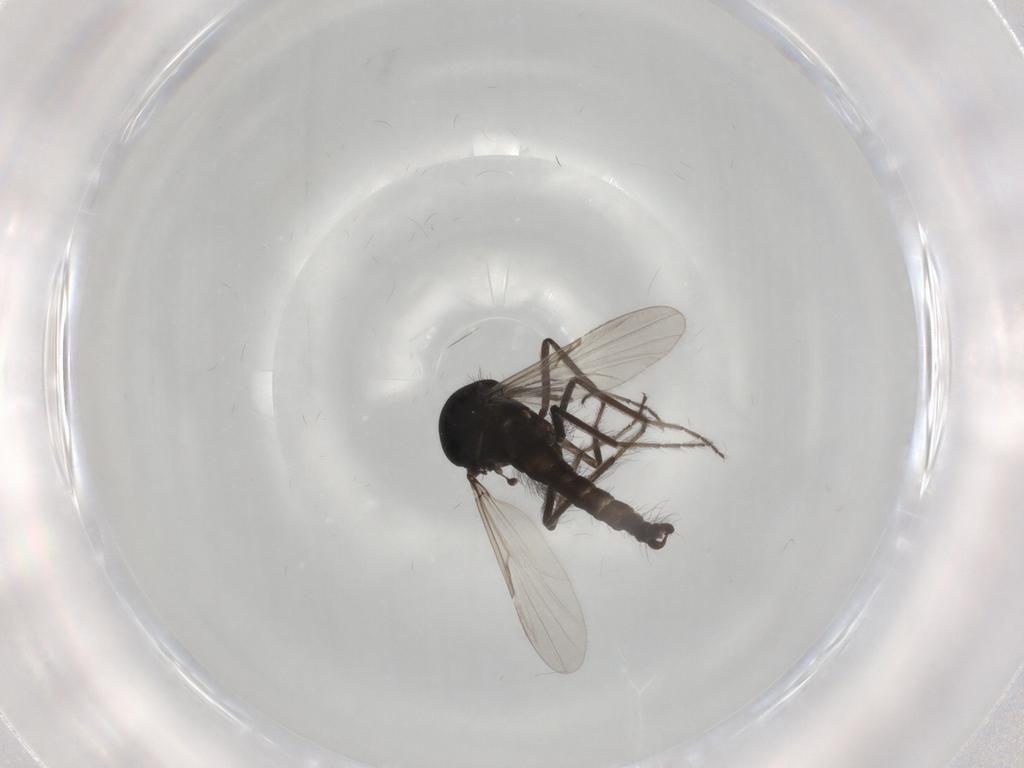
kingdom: Animalia
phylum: Arthropoda
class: Insecta
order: Diptera
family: Ceratopogonidae
